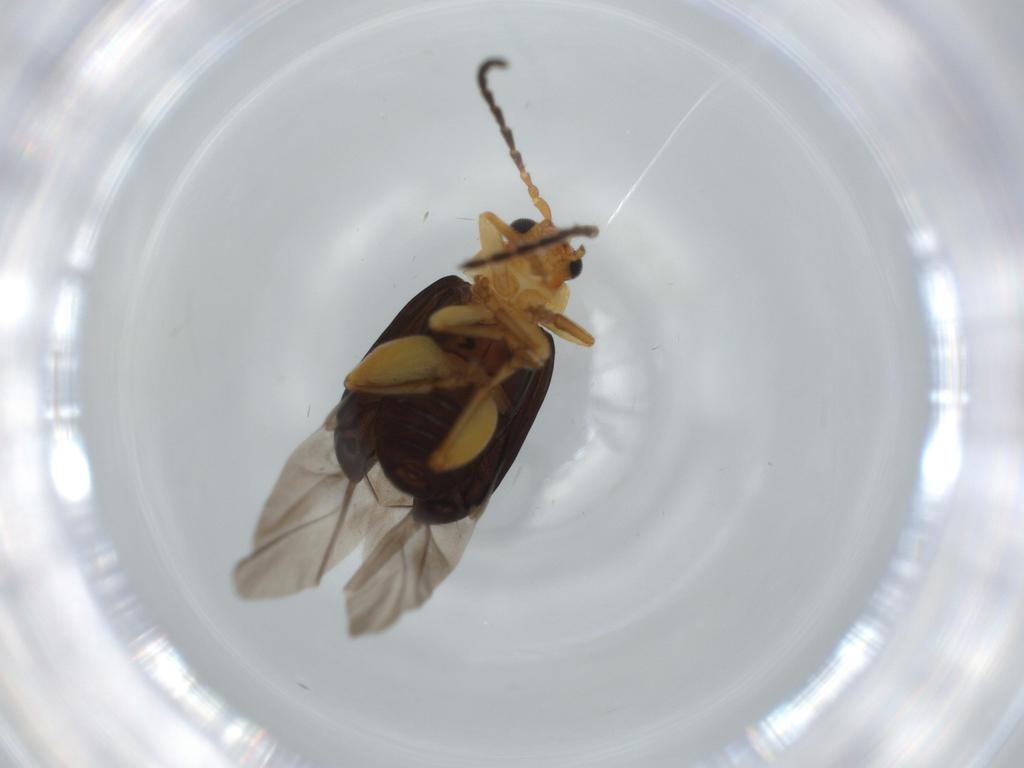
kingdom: Animalia
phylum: Arthropoda
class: Insecta
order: Coleoptera
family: Chrysomelidae
